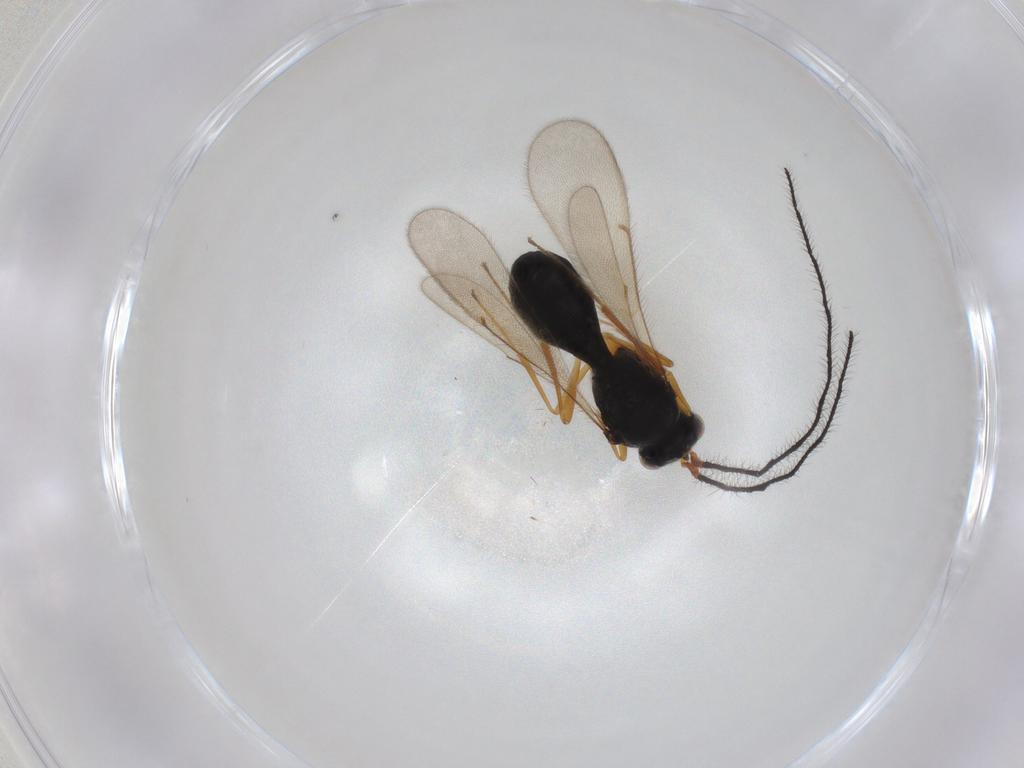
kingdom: Animalia
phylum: Arthropoda
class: Insecta
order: Hymenoptera
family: Scelionidae
